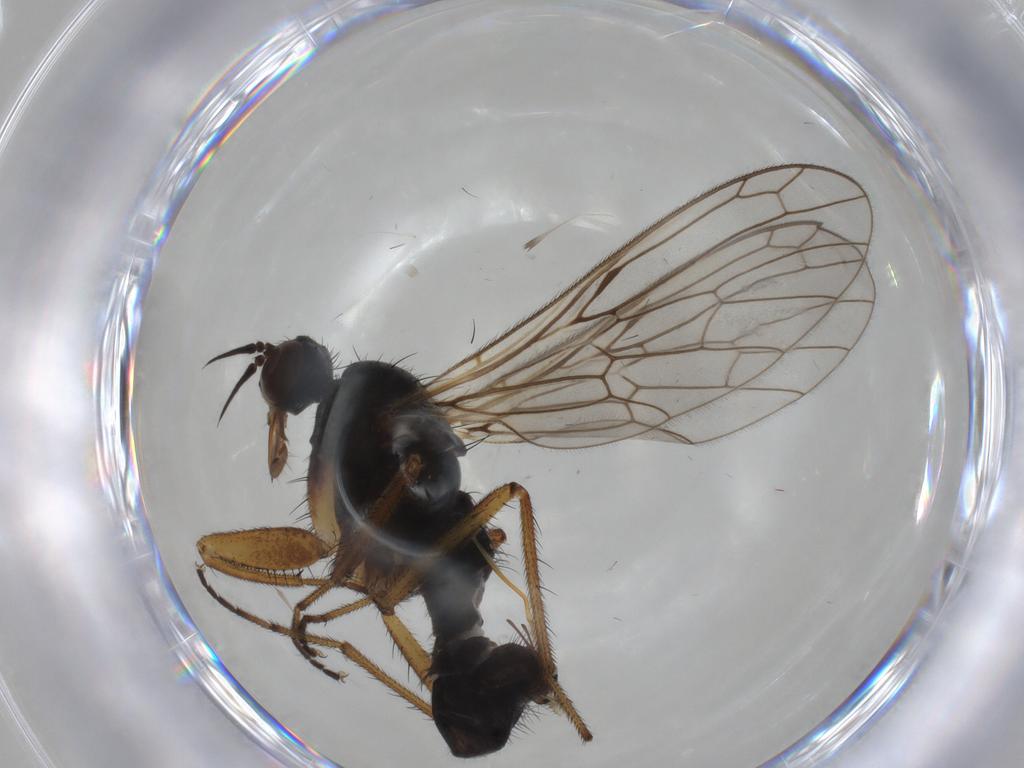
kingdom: Animalia
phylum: Arthropoda
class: Insecta
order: Diptera
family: Empididae
